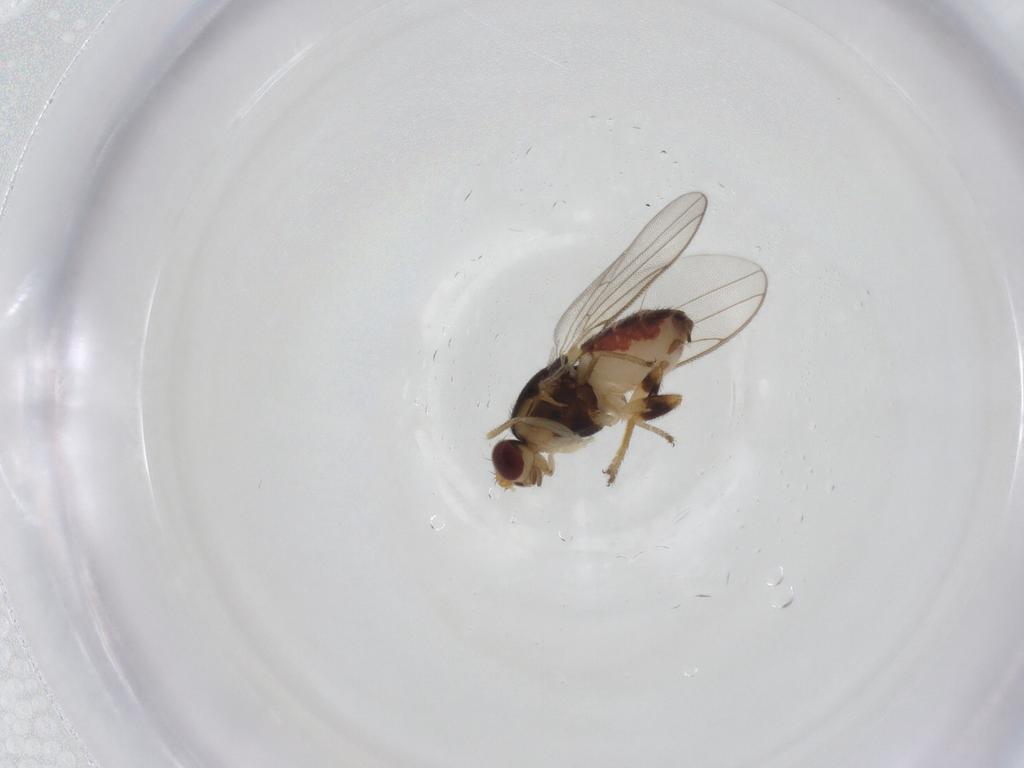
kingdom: Animalia
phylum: Arthropoda
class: Insecta
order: Diptera
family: Chloropidae
